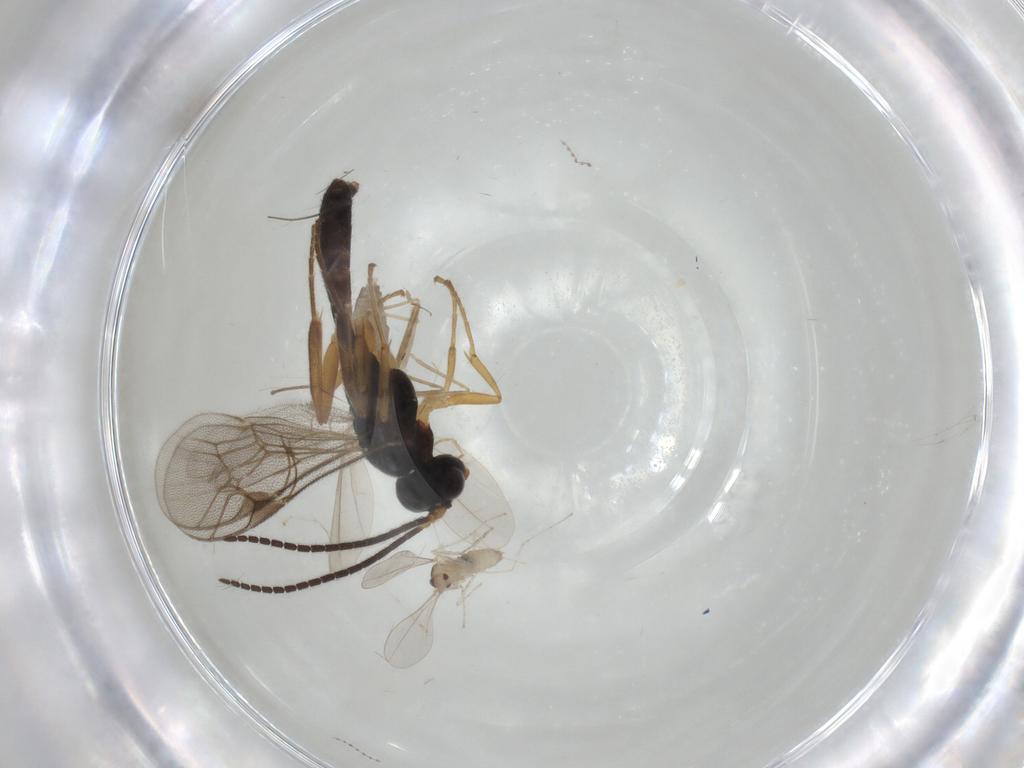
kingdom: Animalia
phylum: Arthropoda
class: Insecta
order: Diptera
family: Cecidomyiidae
